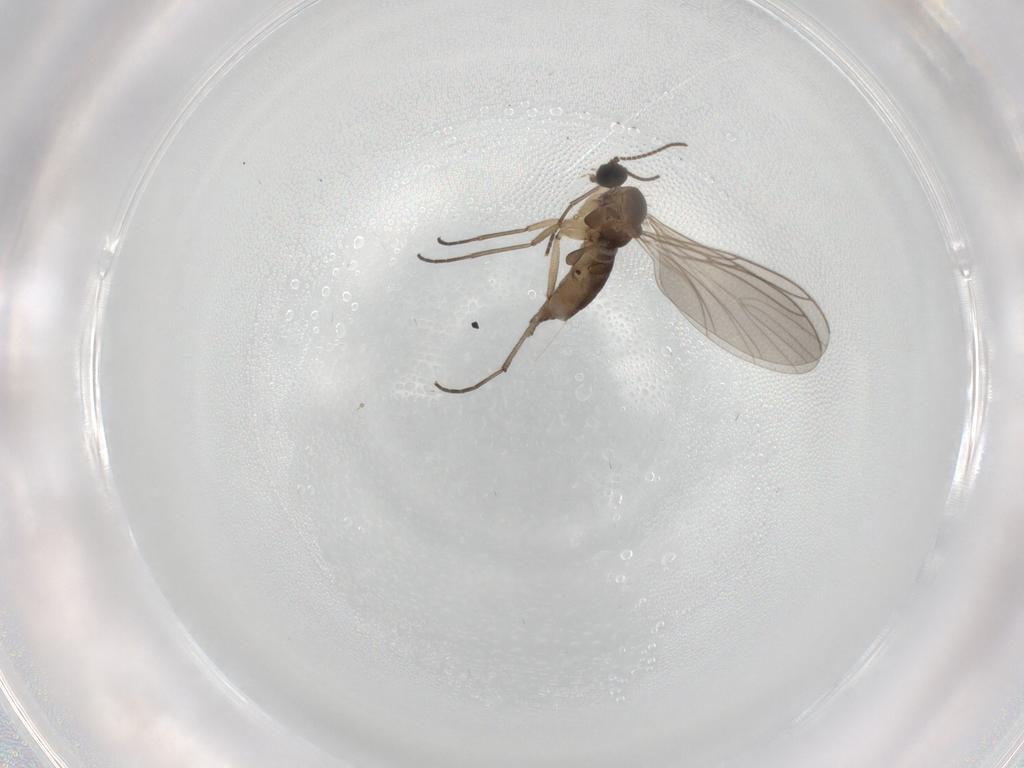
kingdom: Animalia
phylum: Arthropoda
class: Insecta
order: Diptera
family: Sciaridae
